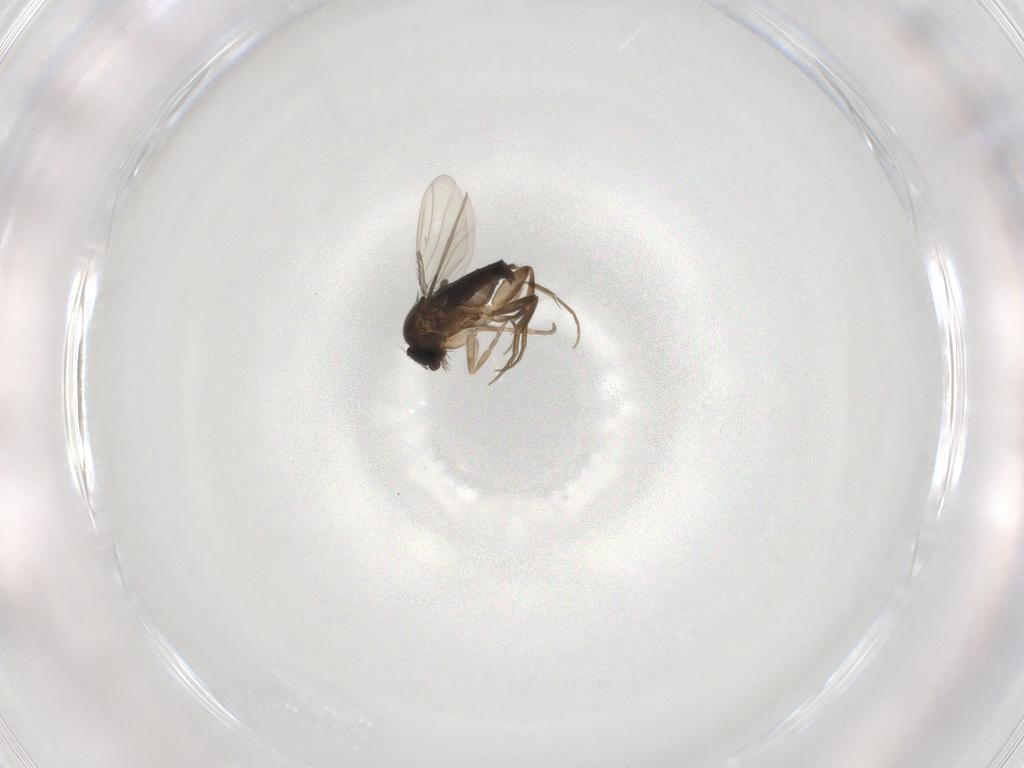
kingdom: Animalia
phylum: Arthropoda
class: Insecta
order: Diptera
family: Phoridae
